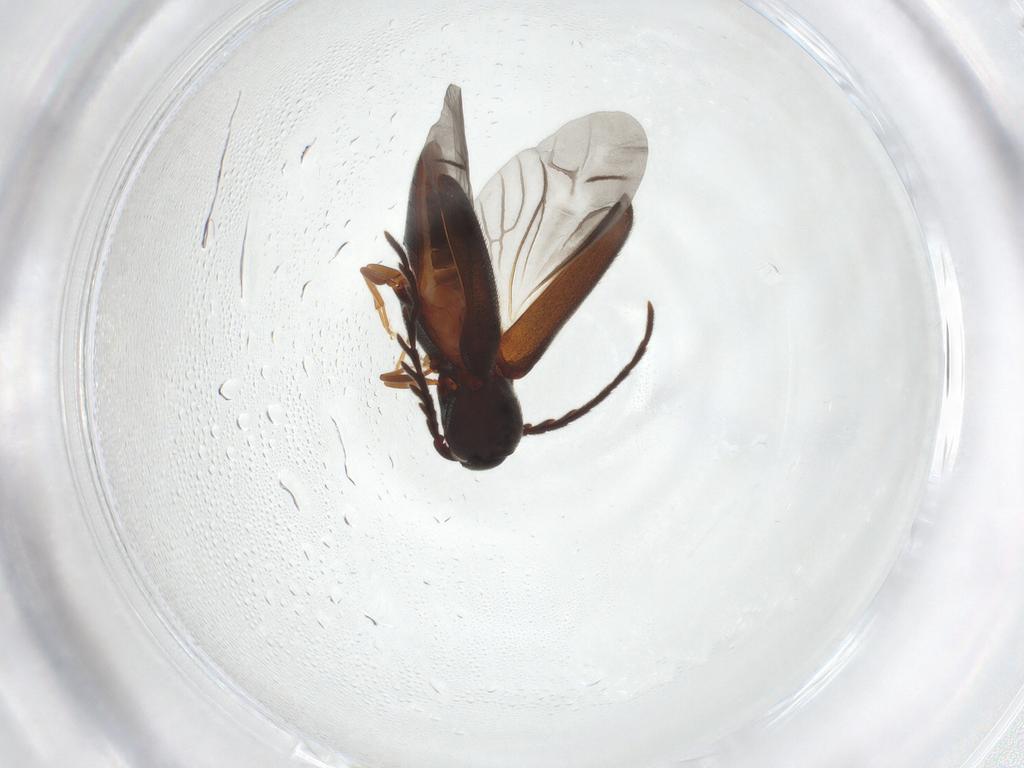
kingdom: Animalia
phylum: Arthropoda
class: Insecta
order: Coleoptera
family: Eucnemidae
